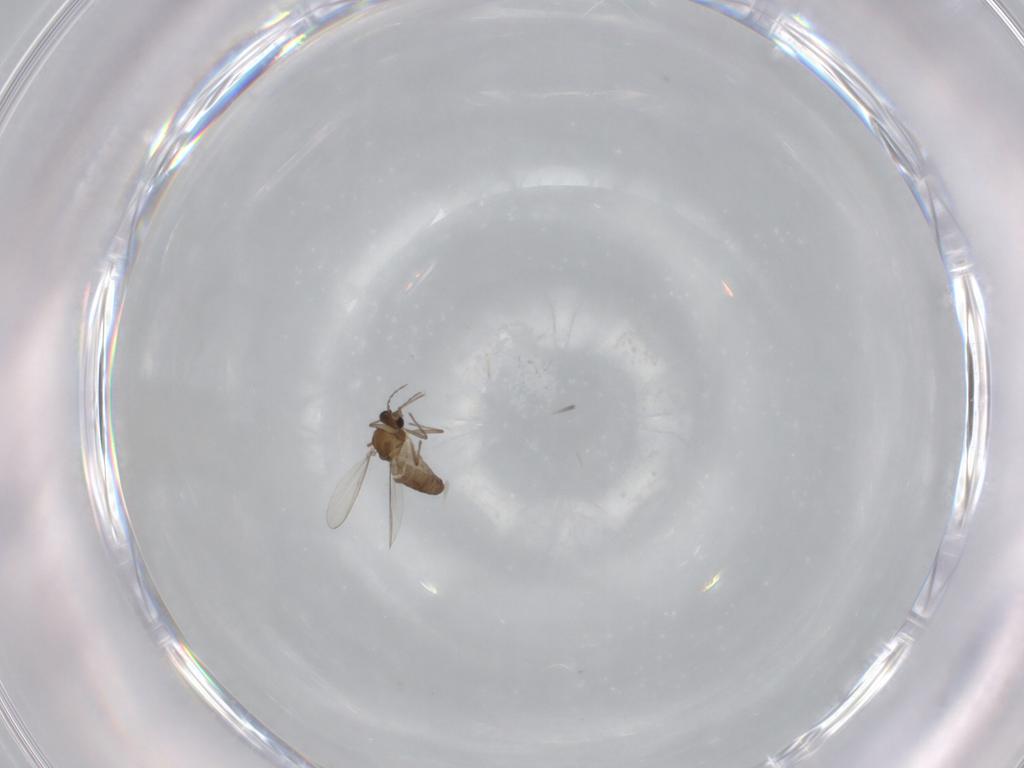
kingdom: Animalia
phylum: Arthropoda
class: Insecta
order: Diptera
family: Chironomidae
